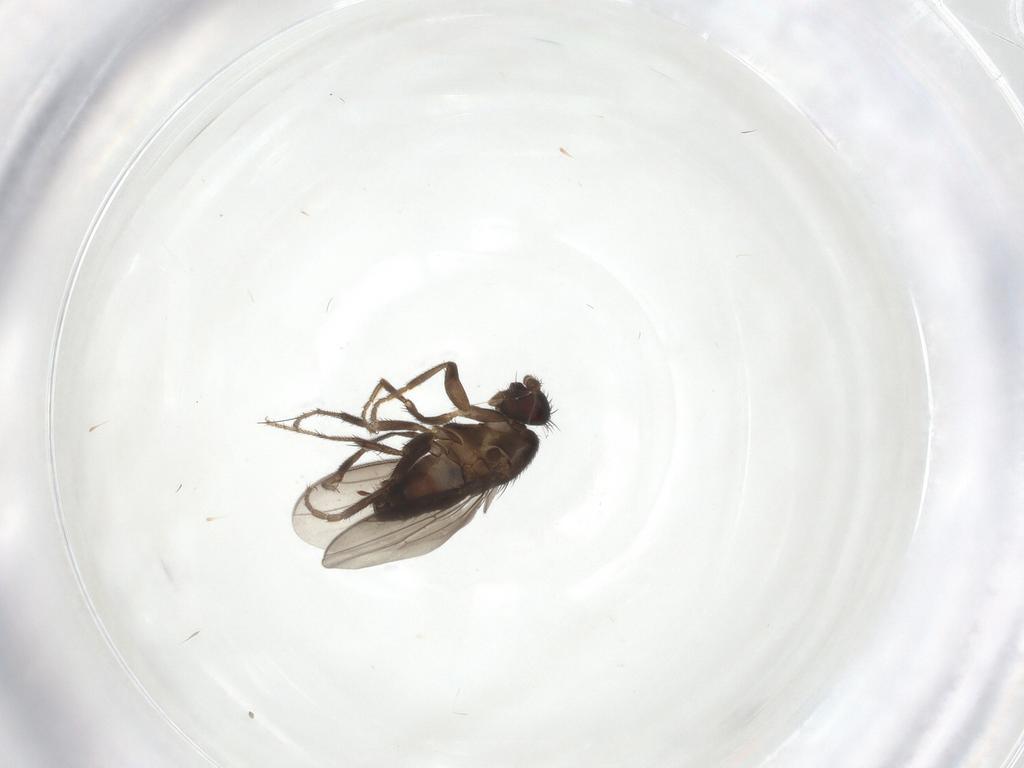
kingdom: Animalia
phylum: Arthropoda
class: Insecta
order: Diptera
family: Sphaeroceridae
